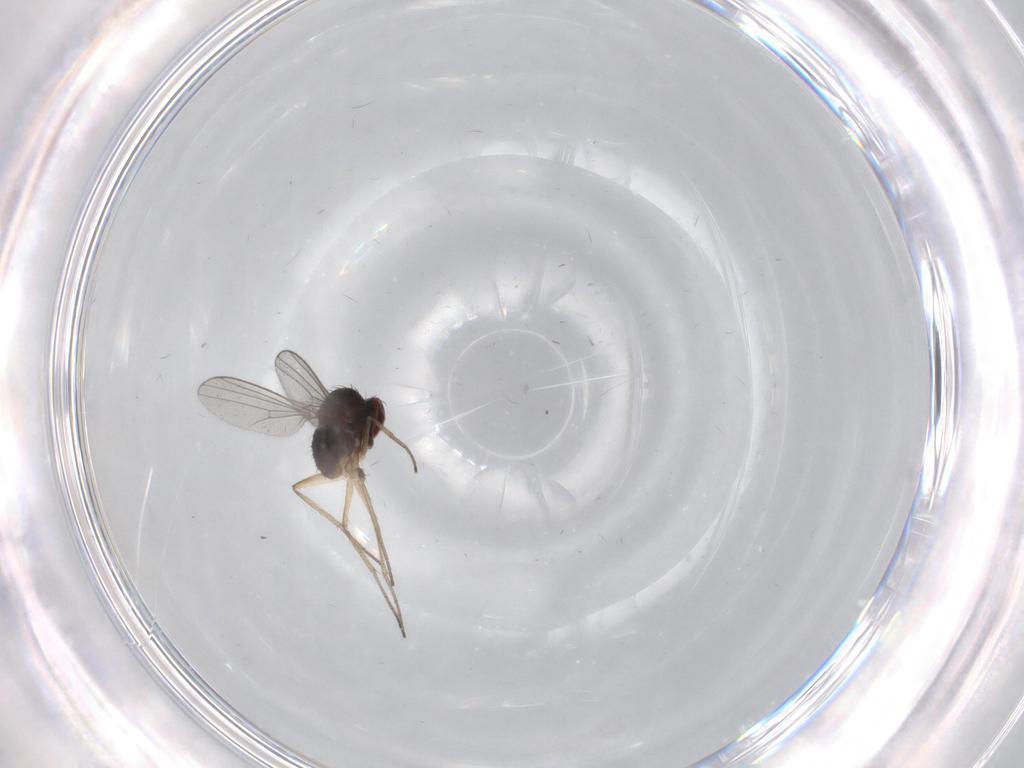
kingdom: Animalia
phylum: Arthropoda
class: Insecta
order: Diptera
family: Dolichopodidae
